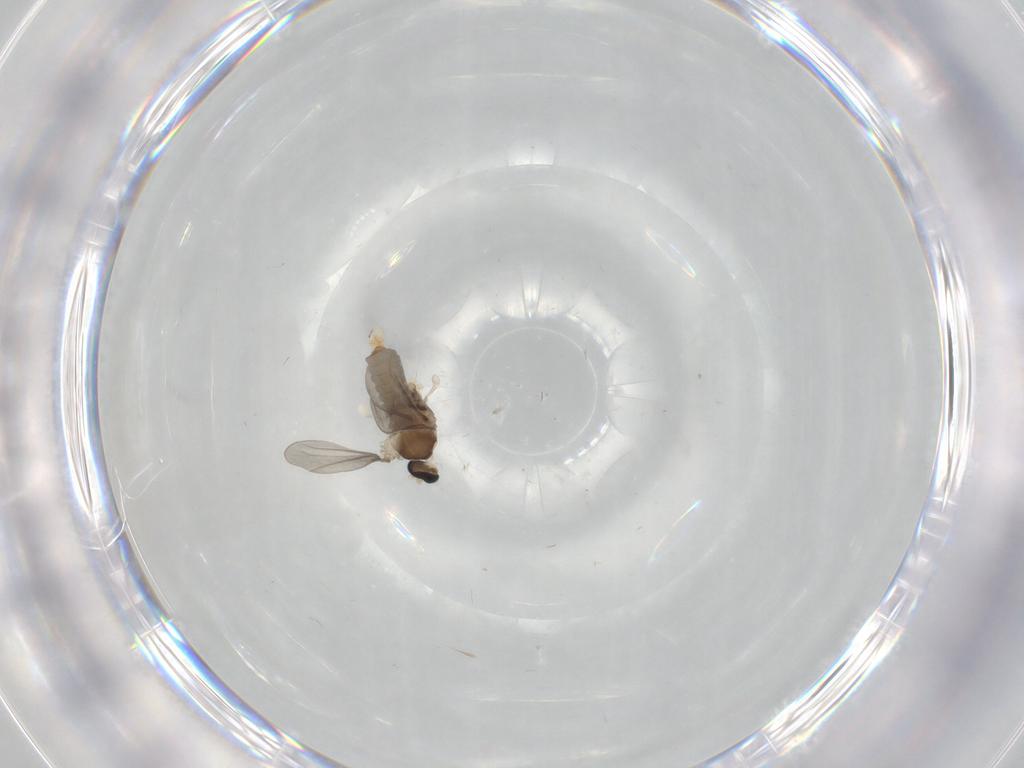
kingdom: Animalia
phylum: Arthropoda
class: Insecta
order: Diptera
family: Cecidomyiidae
